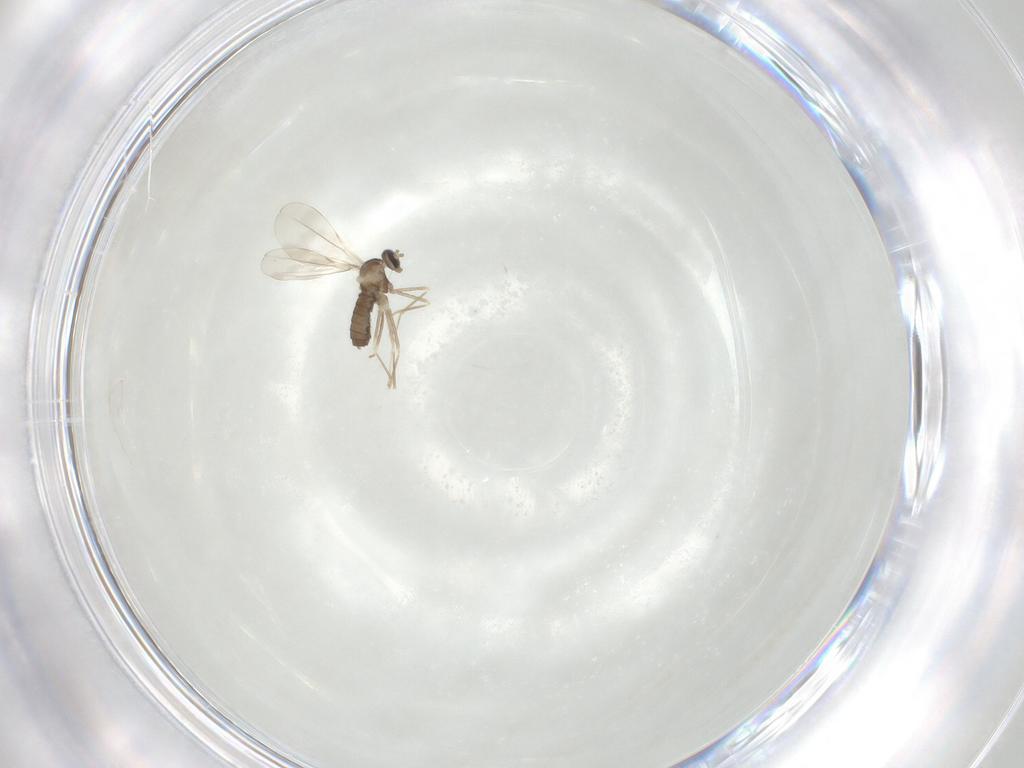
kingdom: Animalia
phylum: Arthropoda
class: Insecta
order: Diptera
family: Cecidomyiidae
